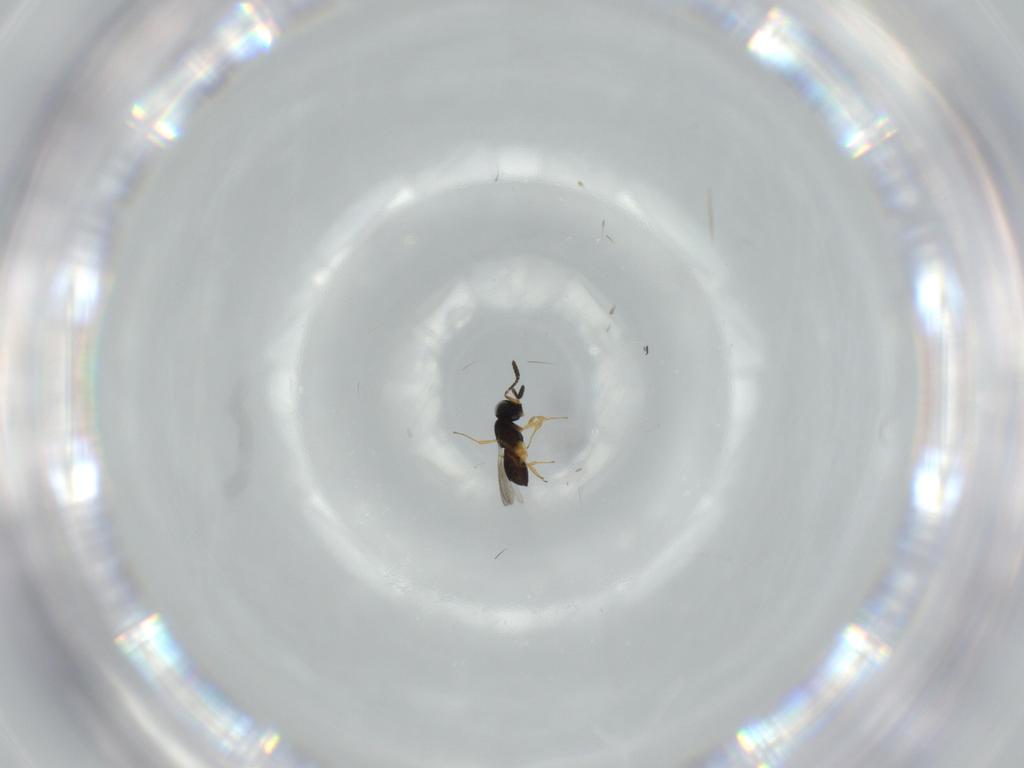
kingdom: Animalia
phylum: Arthropoda
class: Insecta
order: Hymenoptera
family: Scelionidae
